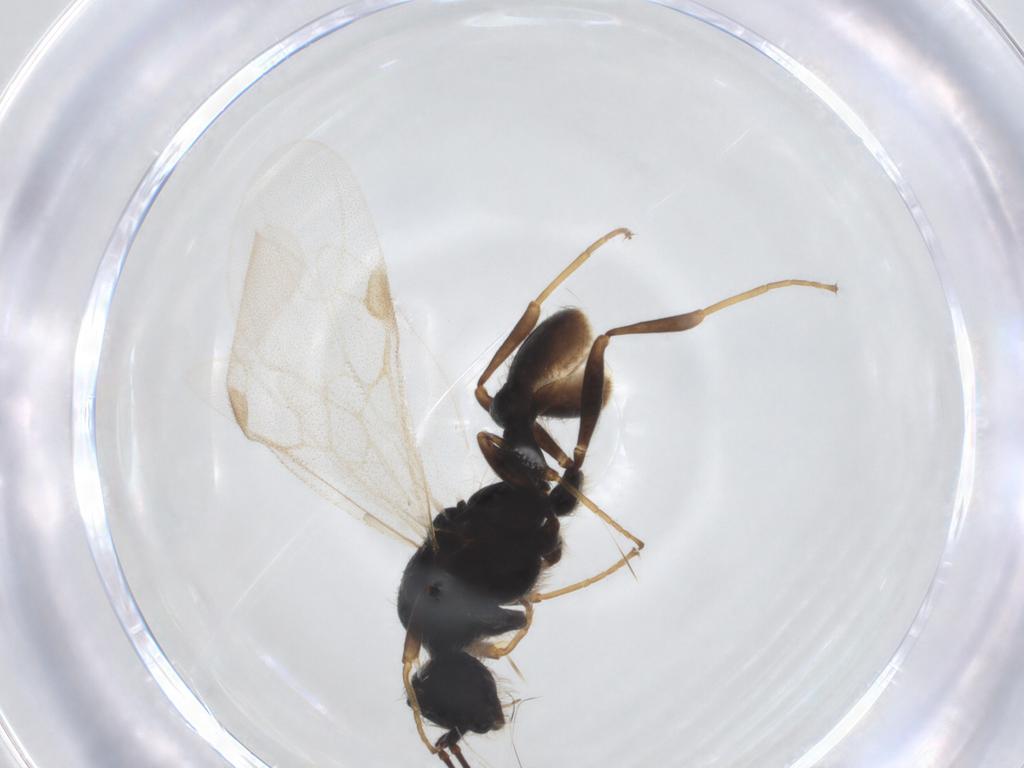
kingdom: Animalia
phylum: Arthropoda
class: Insecta
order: Hymenoptera
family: Formicidae
